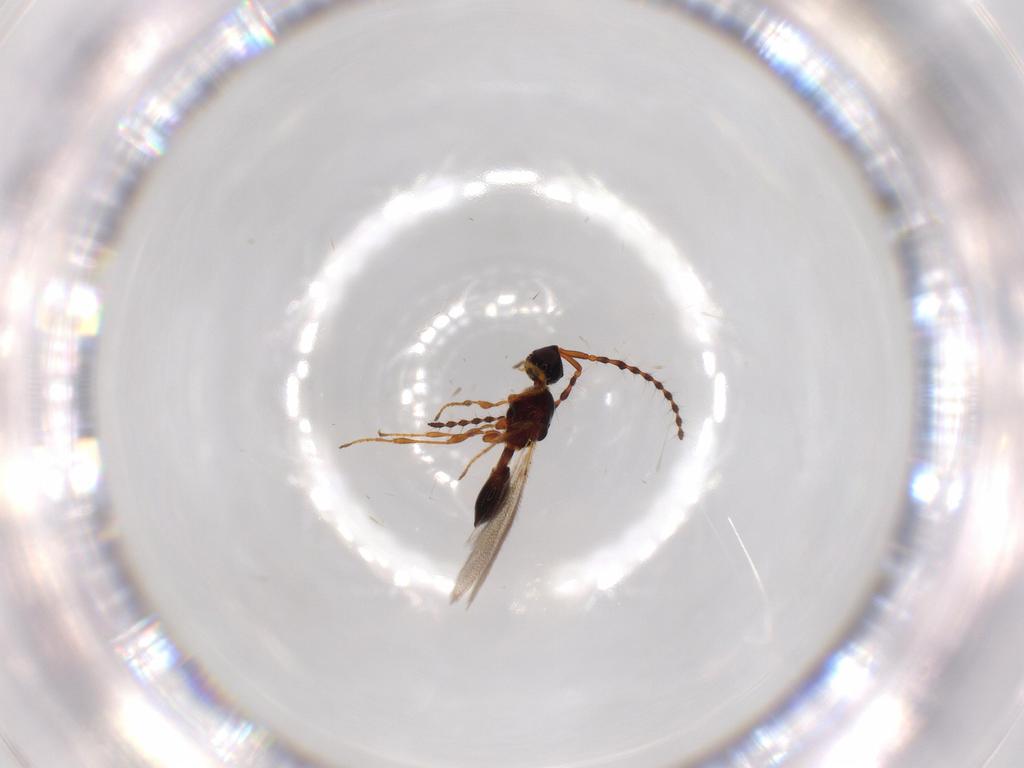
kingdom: Animalia
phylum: Arthropoda
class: Insecta
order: Hymenoptera
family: Diapriidae
